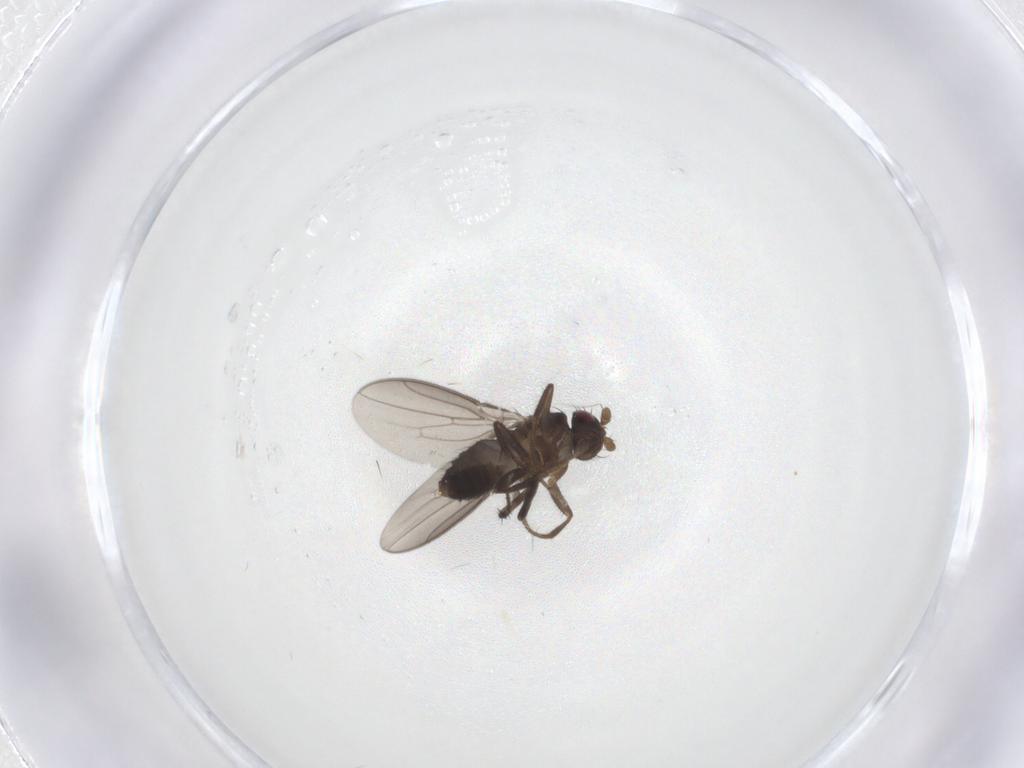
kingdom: Animalia
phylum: Arthropoda
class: Insecta
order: Diptera
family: Sphaeroceridae
